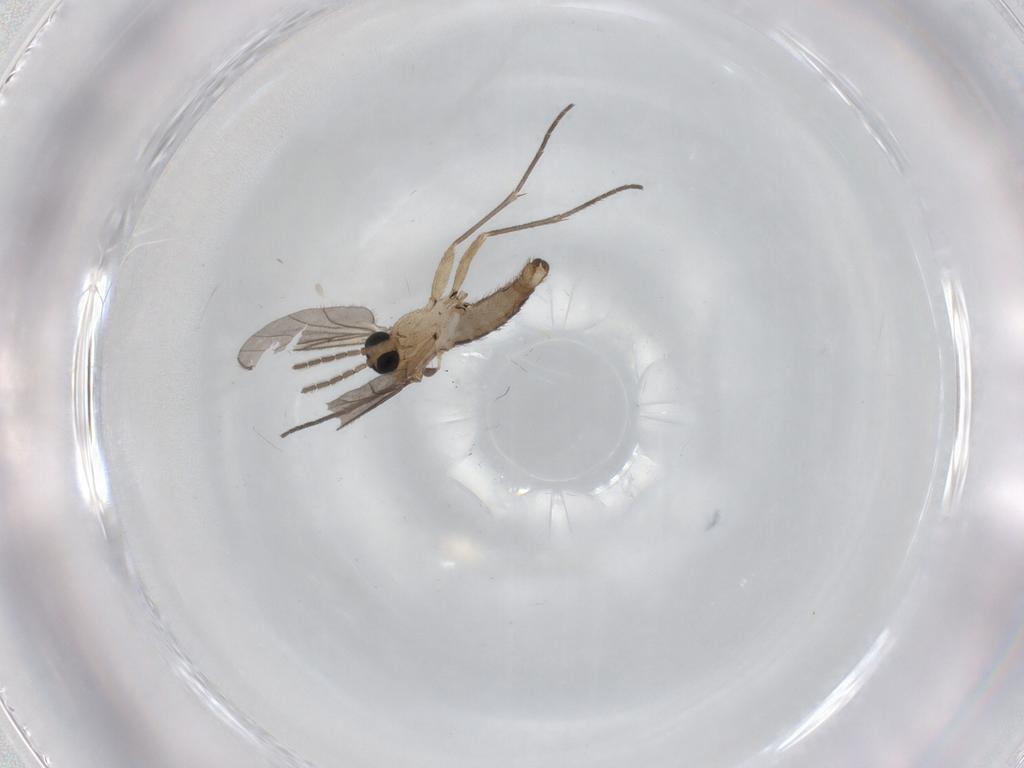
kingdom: Animalia
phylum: Arthropoda
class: Insecta
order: Diptera
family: Sciaridae
